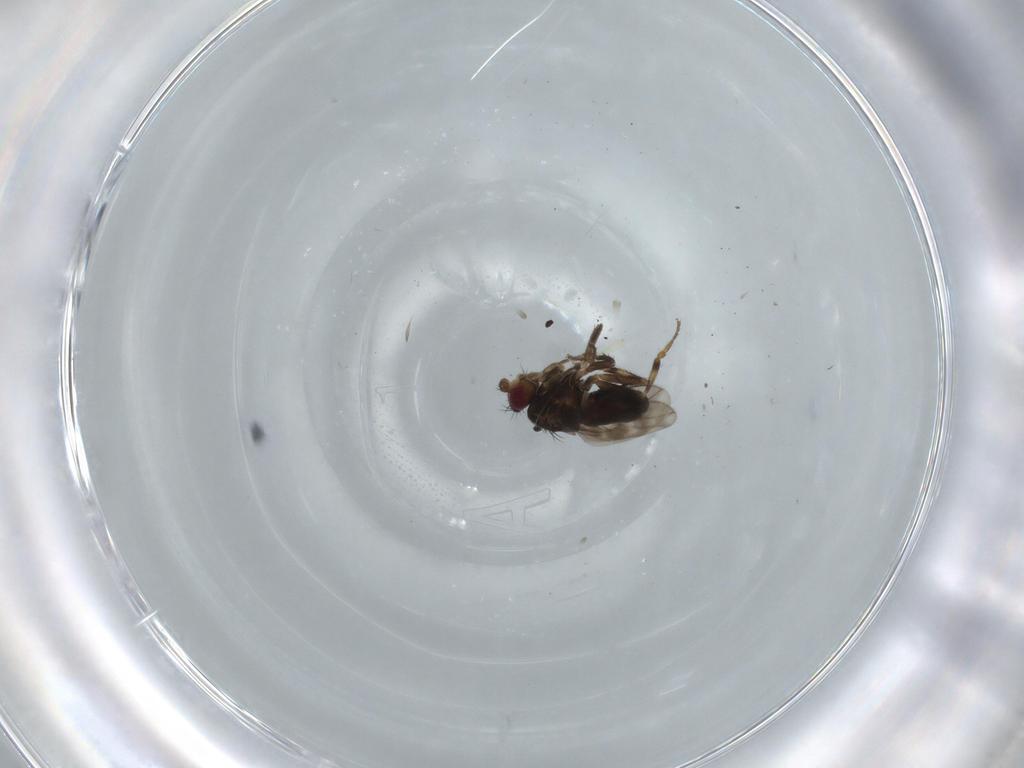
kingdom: Animalia
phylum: Arthropoda
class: Insecta
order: Diptera
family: Sphaeroceridae
